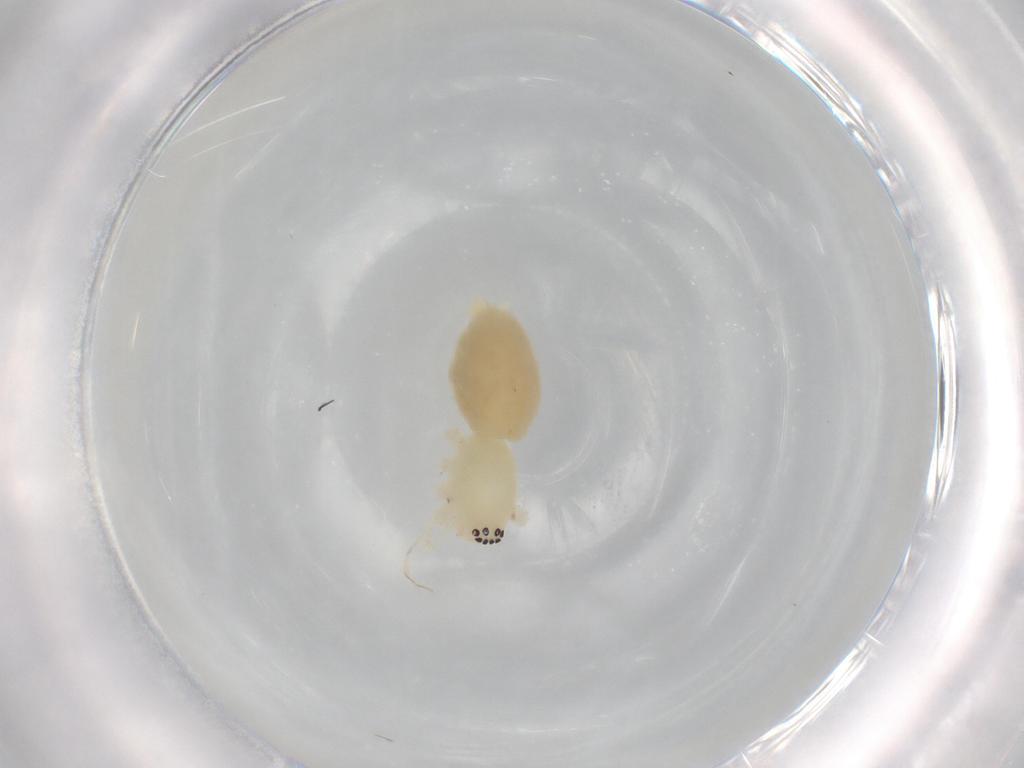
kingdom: Animalia
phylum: Arthropoda
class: Arachnida
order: Araneae
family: Anyphaenidae
